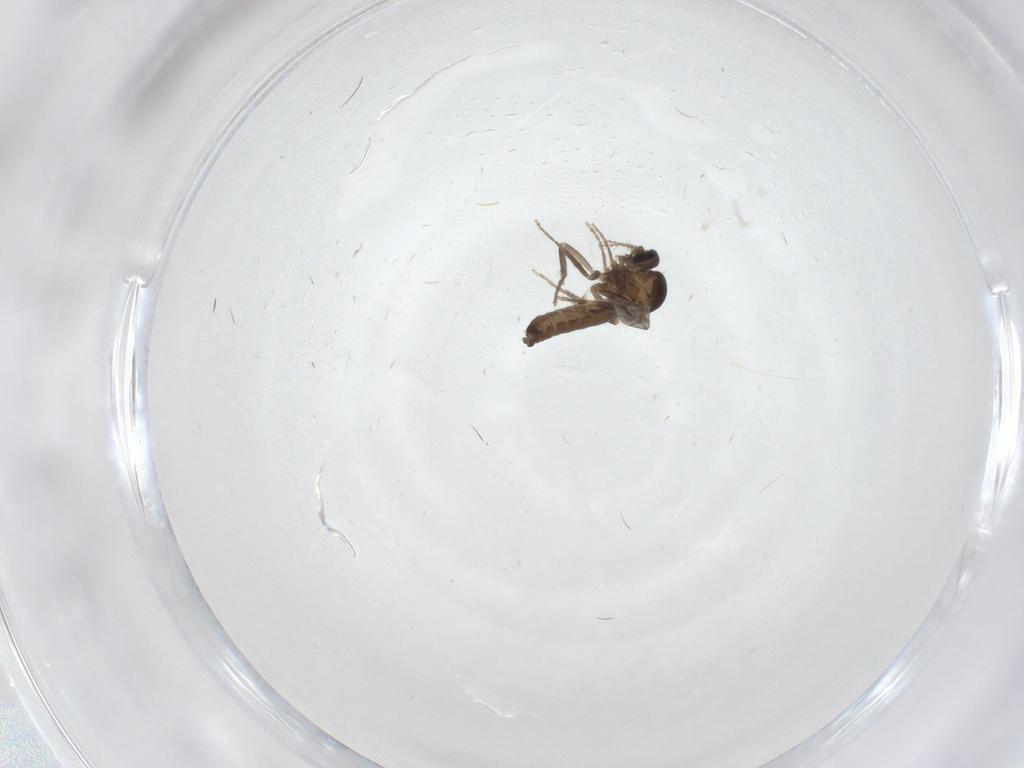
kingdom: Animalia
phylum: Arthropoda
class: Insecta
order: Diptera
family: Ceratopogonidae
